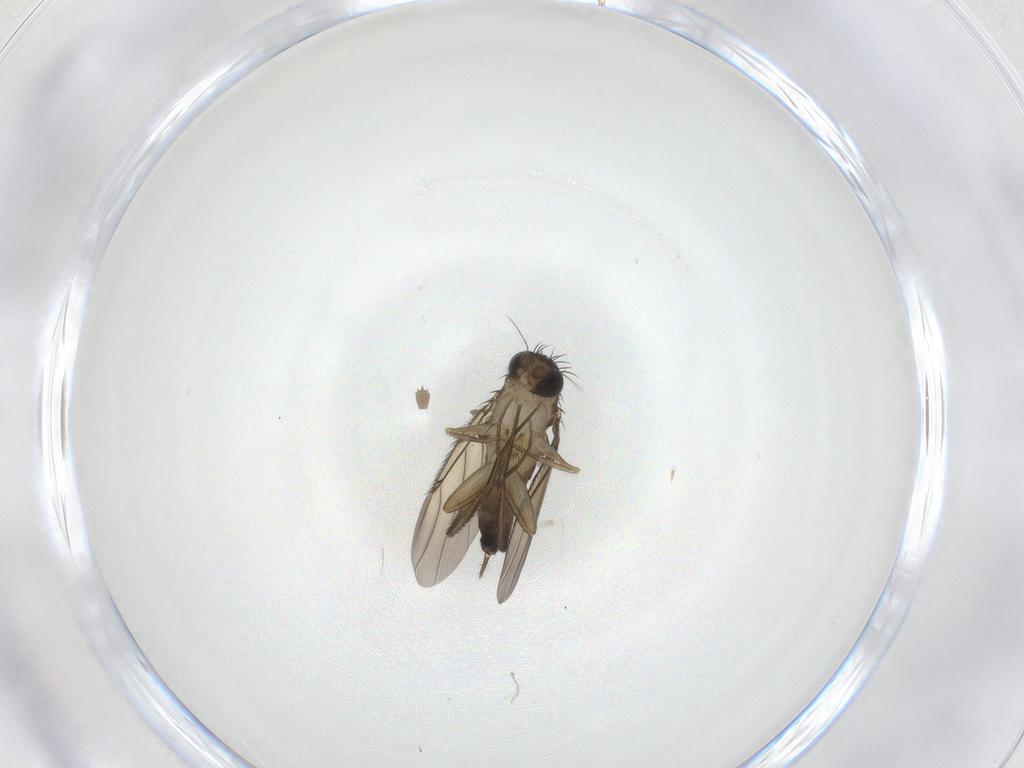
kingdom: Animalia
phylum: Arthropoda
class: Insecta
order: Diptera
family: Phoridae
